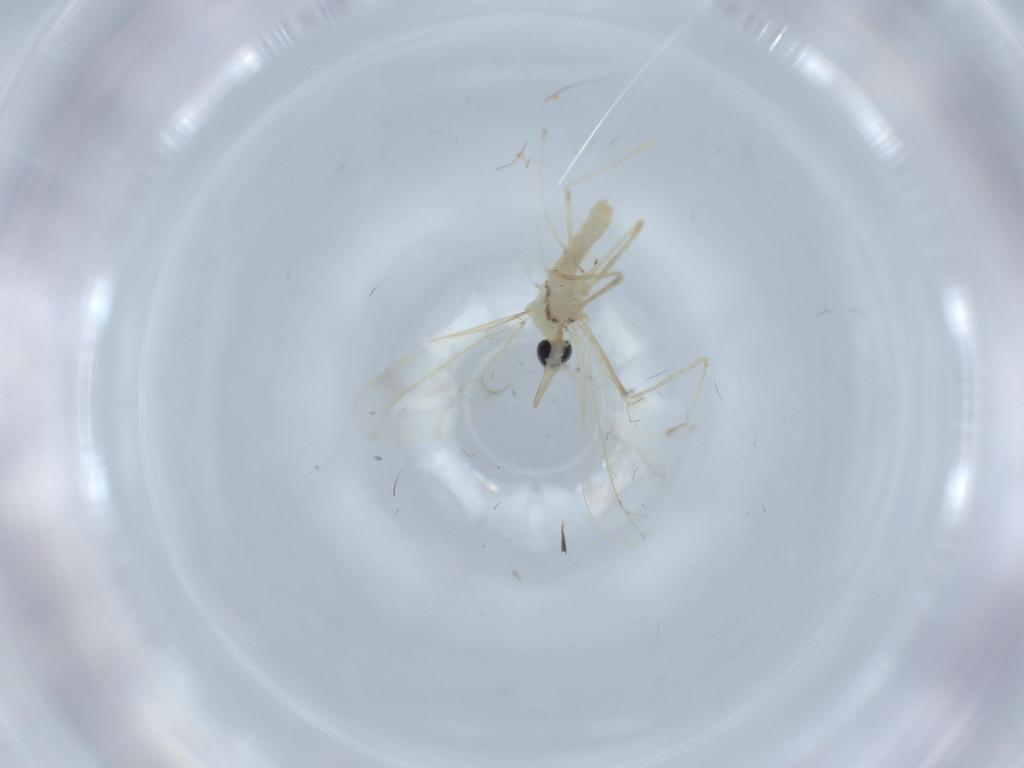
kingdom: Animalia
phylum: Arthropoda
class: Insecta
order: Diptera
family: Cecidomyiidae
